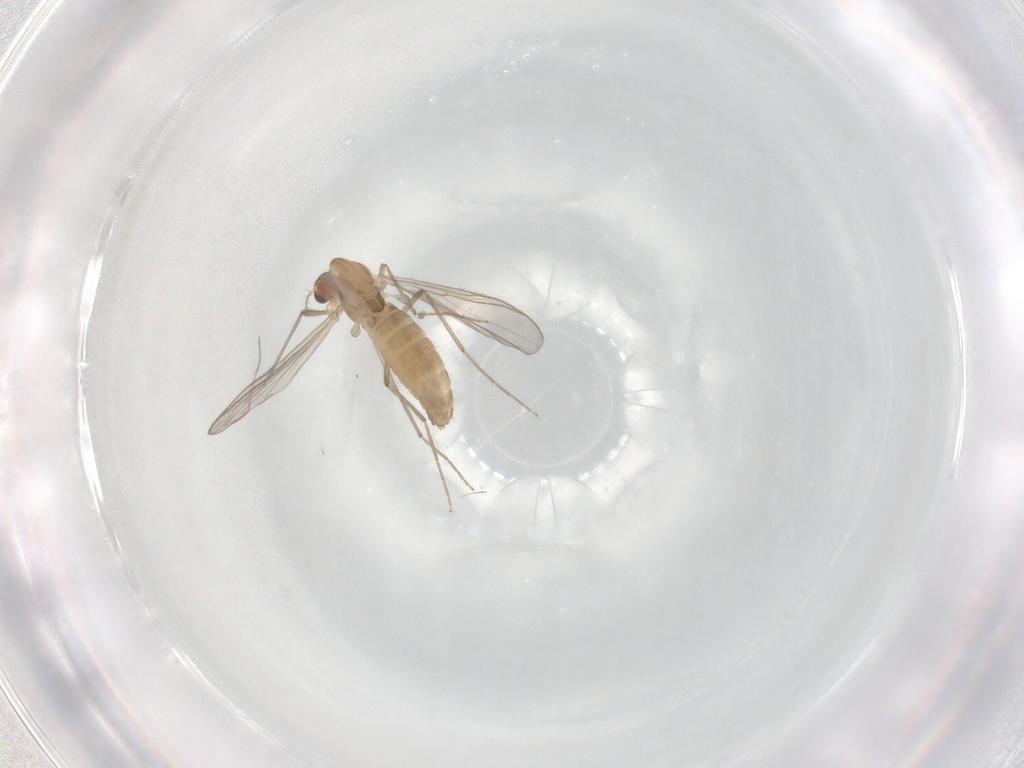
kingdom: Animalia
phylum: Arthropoda
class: Insecta
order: Diptera
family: Chironomidae
